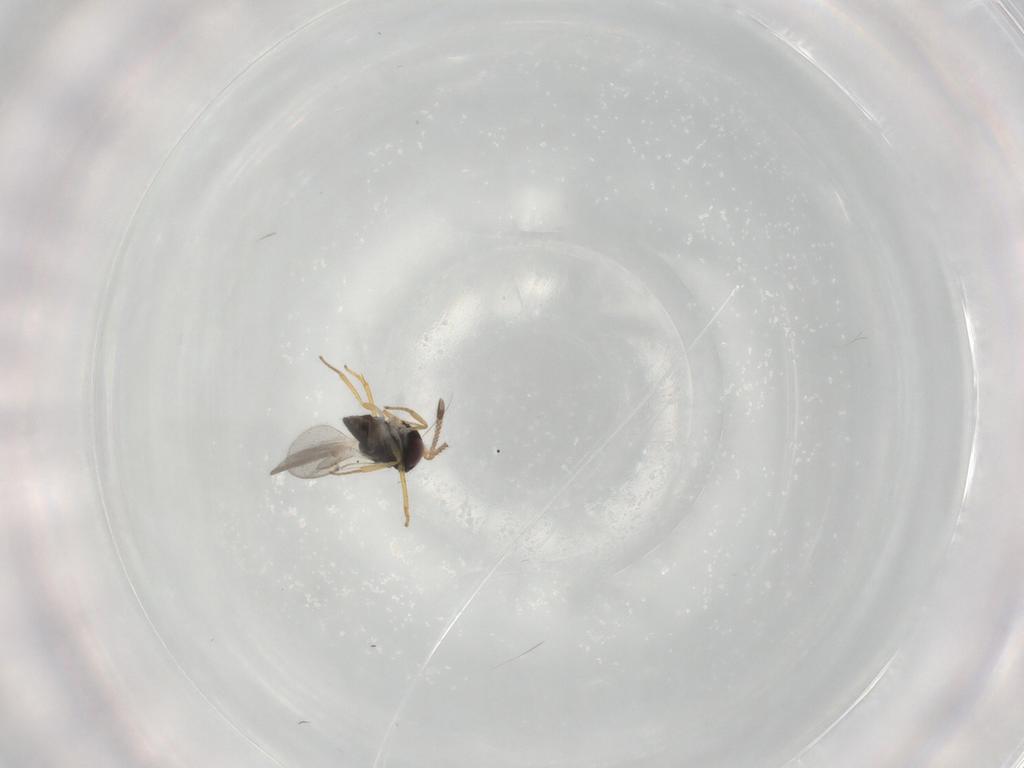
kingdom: Animalia
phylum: Arthropoda
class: Insecta
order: Hymenoptera
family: Encyrtidae
